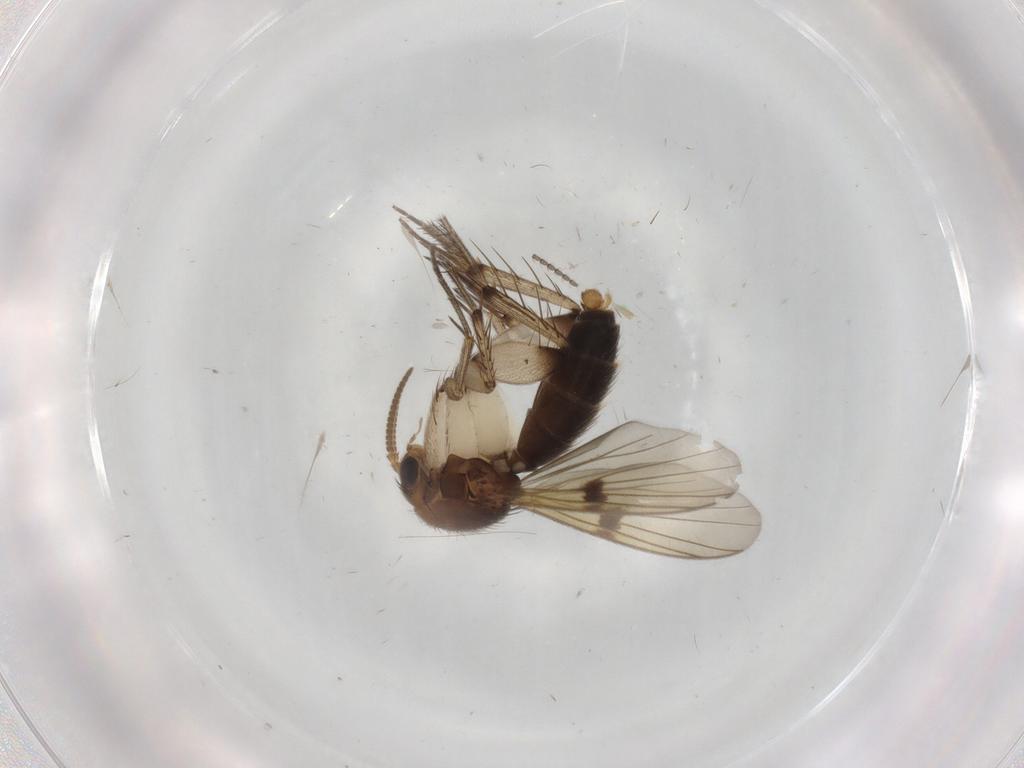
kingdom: Animalia
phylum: Arthropoda
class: Insecta
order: Diptera
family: Mycetophilidae
